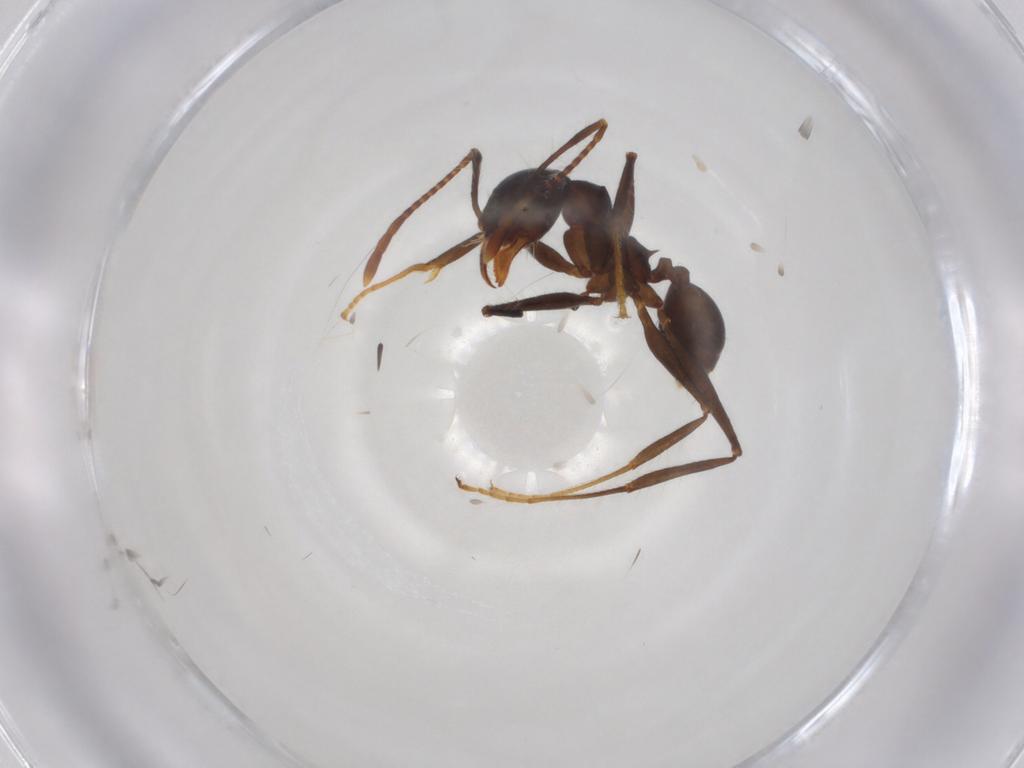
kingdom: Animalia
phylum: Arthropoda
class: Insecta
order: Hymenoptera
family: Formicidae
